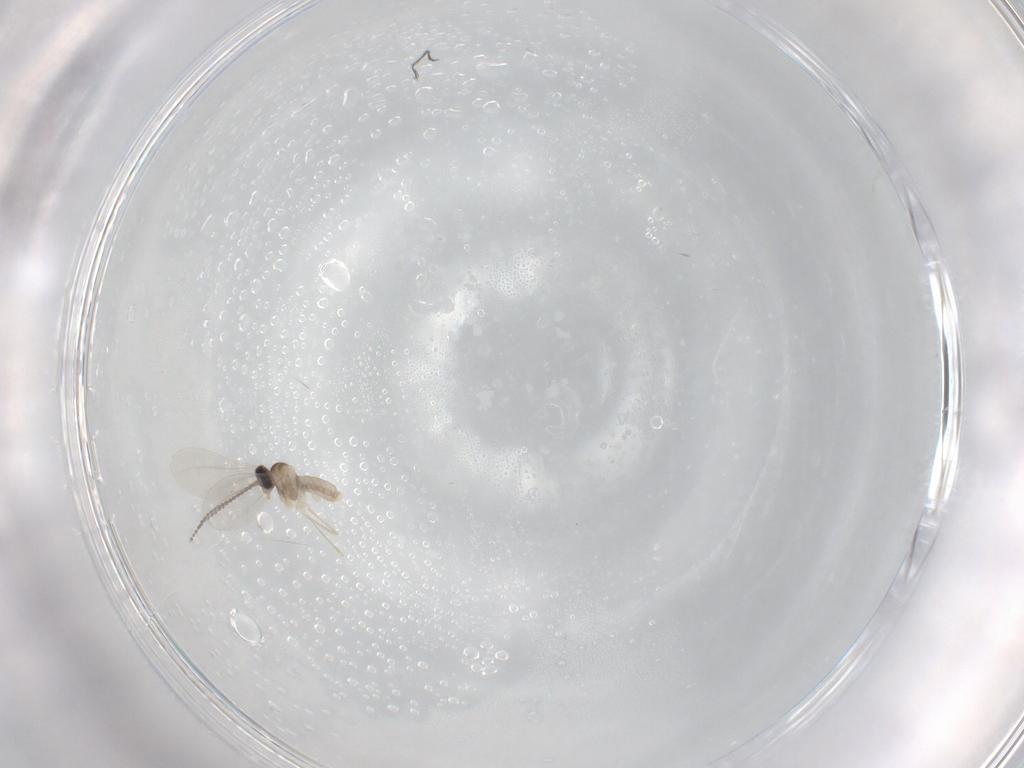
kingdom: Animalia
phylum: Arthropoda
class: Insecta
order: Diptera
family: Cecidomyiidae
